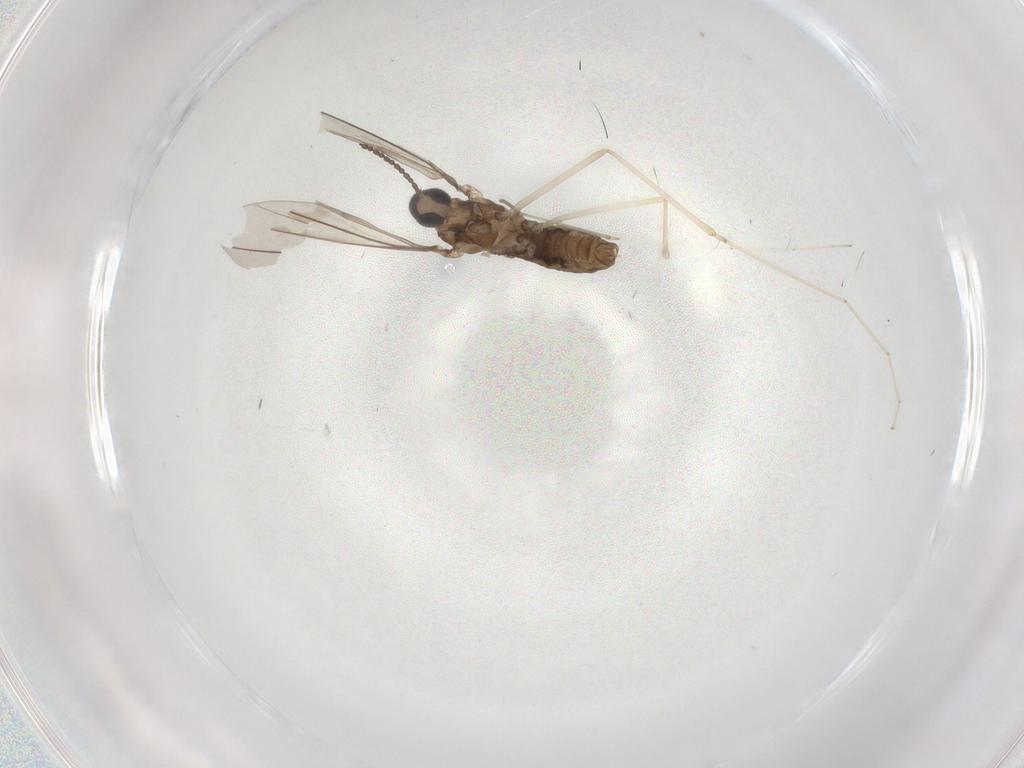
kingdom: Animalia
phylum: Arthropoda
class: Insecta
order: Diptera
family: Cecidomyiidae
